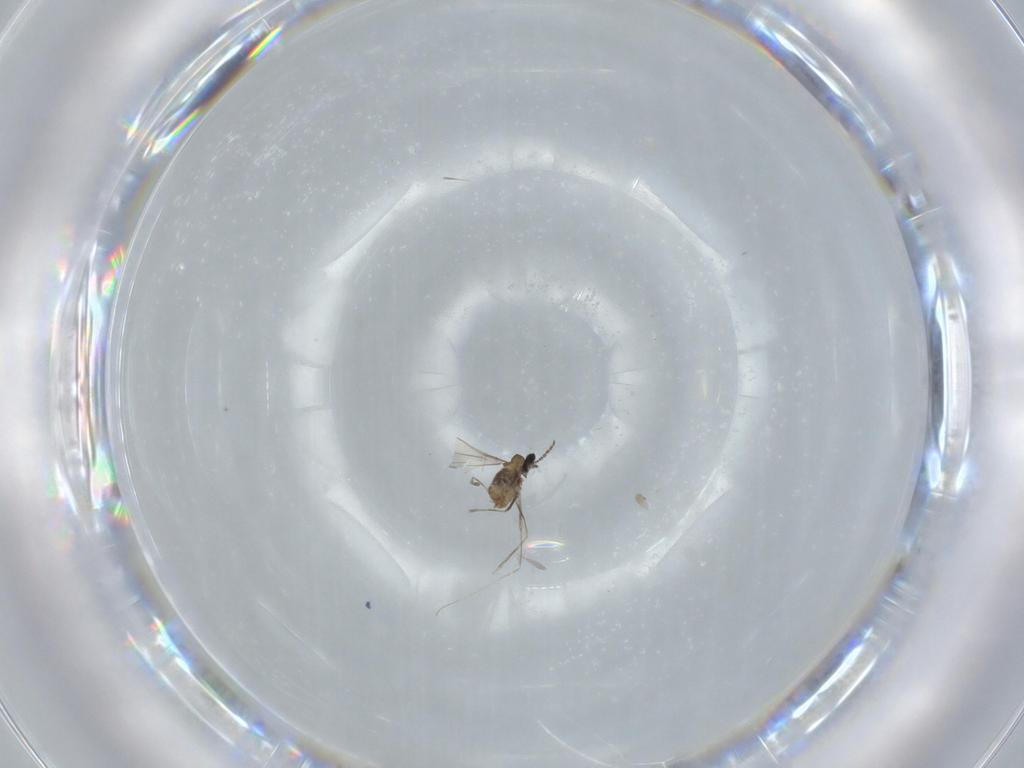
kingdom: Animalia
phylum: Arthropoda
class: Insecta
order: Diptera
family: Cecidomyiidae
